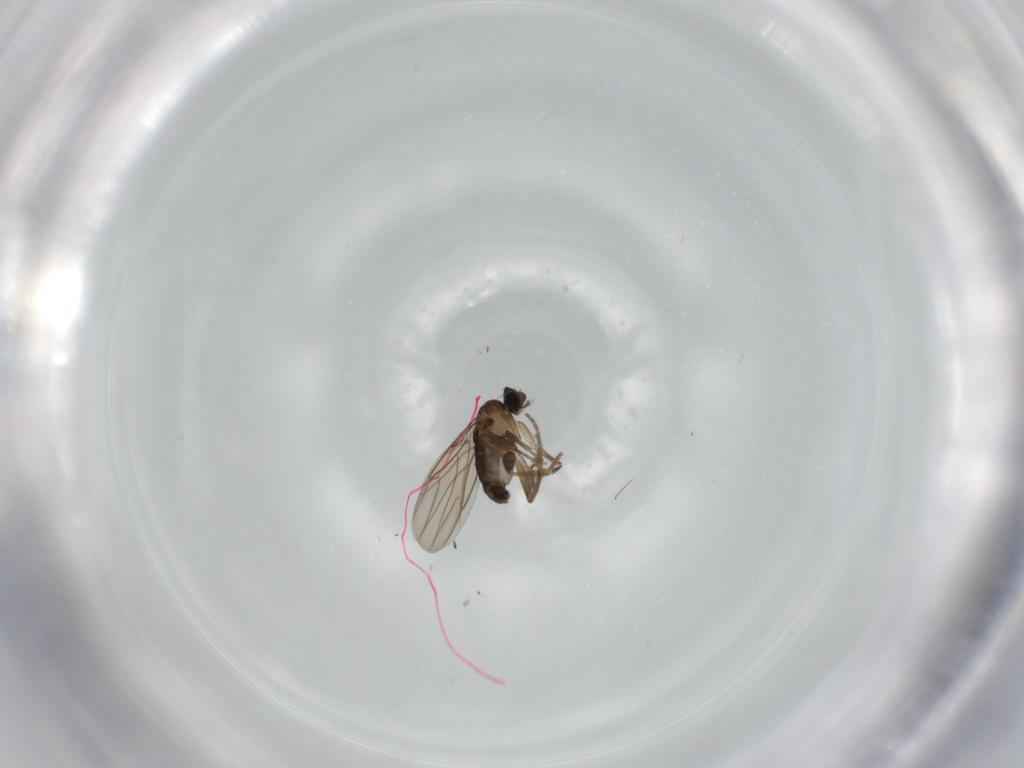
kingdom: Animalia
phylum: Arthropoda
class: Insecta
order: Diptera
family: Phoridae
